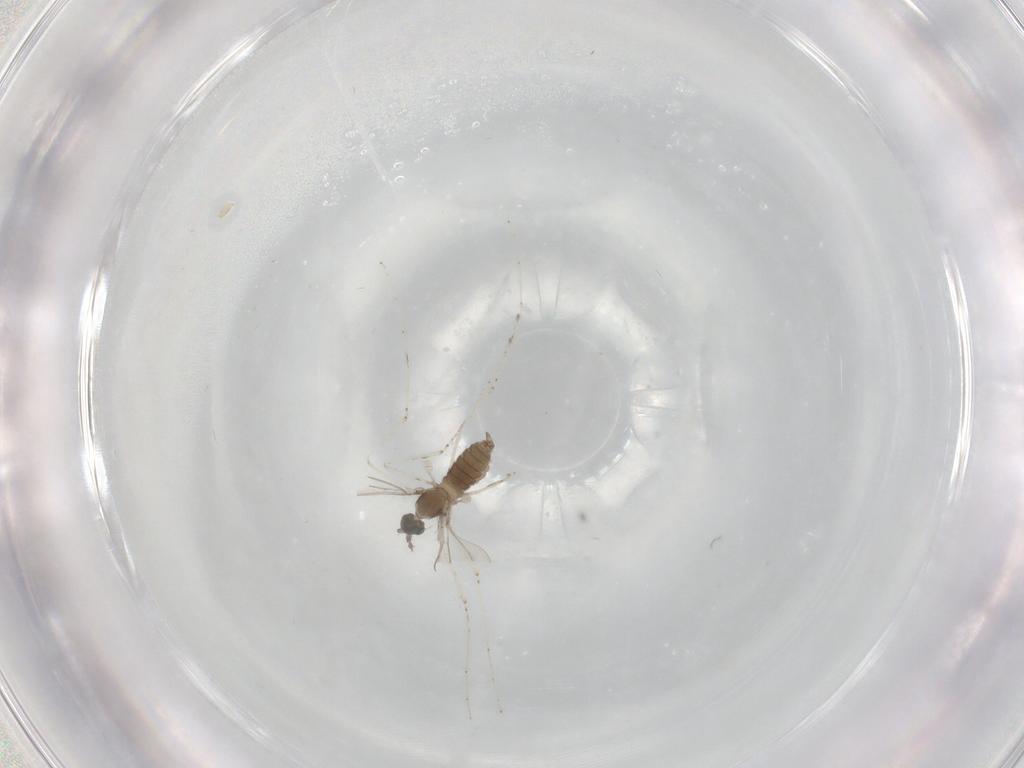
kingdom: Animalia
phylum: Arthropoda
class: Insecta
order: Diptera
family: Cecidomyiidae
